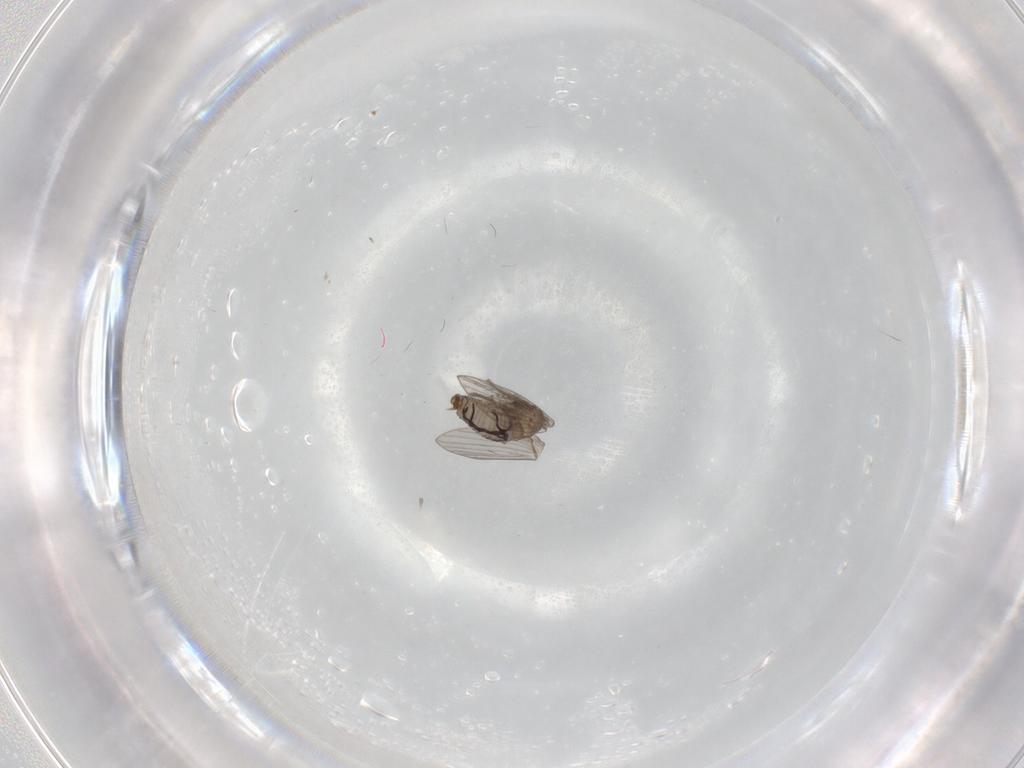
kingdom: Animalia
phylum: Arthropoda
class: Insecta
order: Diptera
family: Psychodidae
